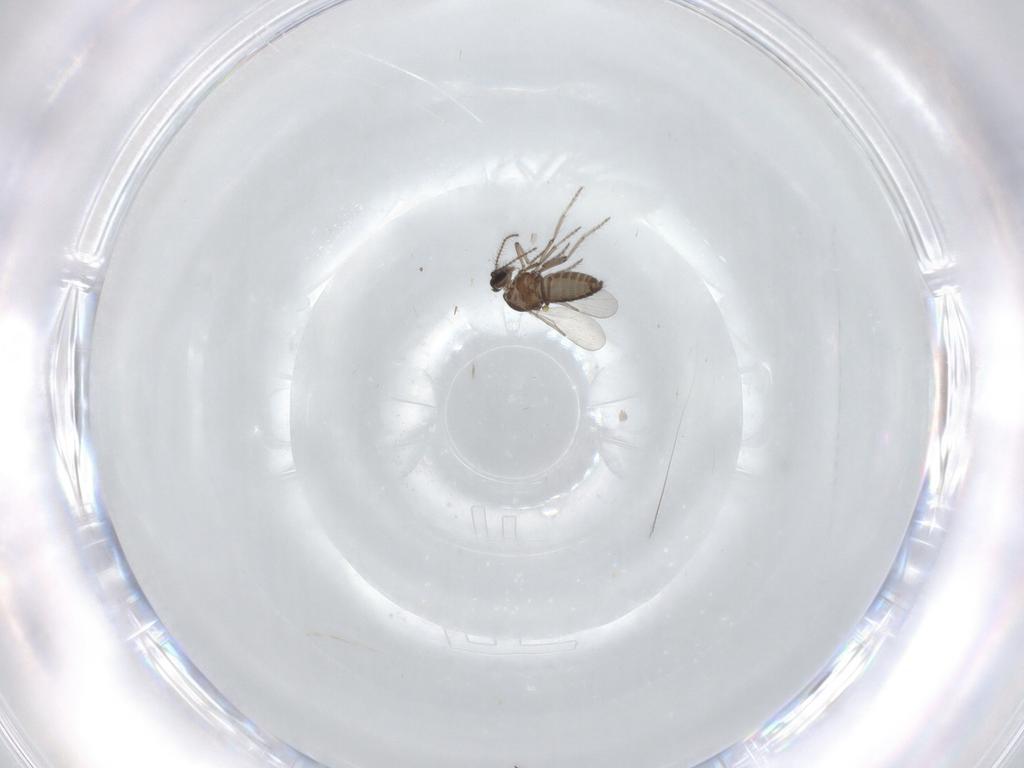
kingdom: Animalia
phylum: Arthropoda
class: Insecta
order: Diptera
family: Ceratopogonidae
